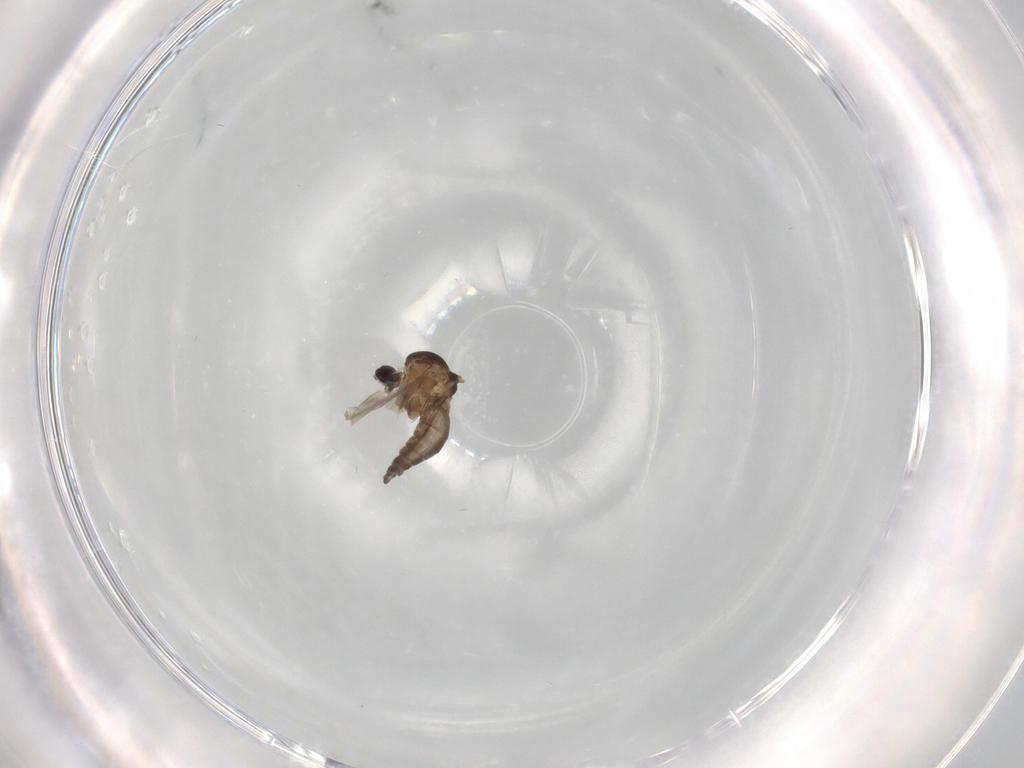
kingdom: Animalia
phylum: Arthropoda
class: Insecta
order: Diptera
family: Ceratopogonidae
